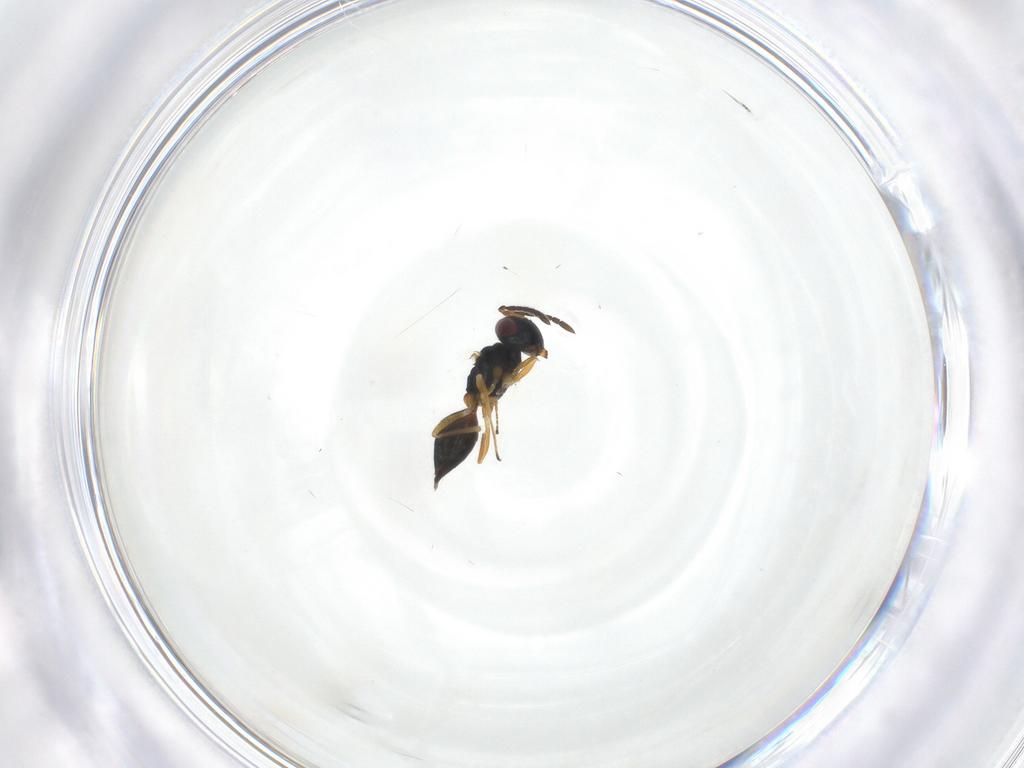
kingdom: Animalia
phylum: Arthropoda
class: Insecta
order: Hymenoptera
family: Pteromalidae
